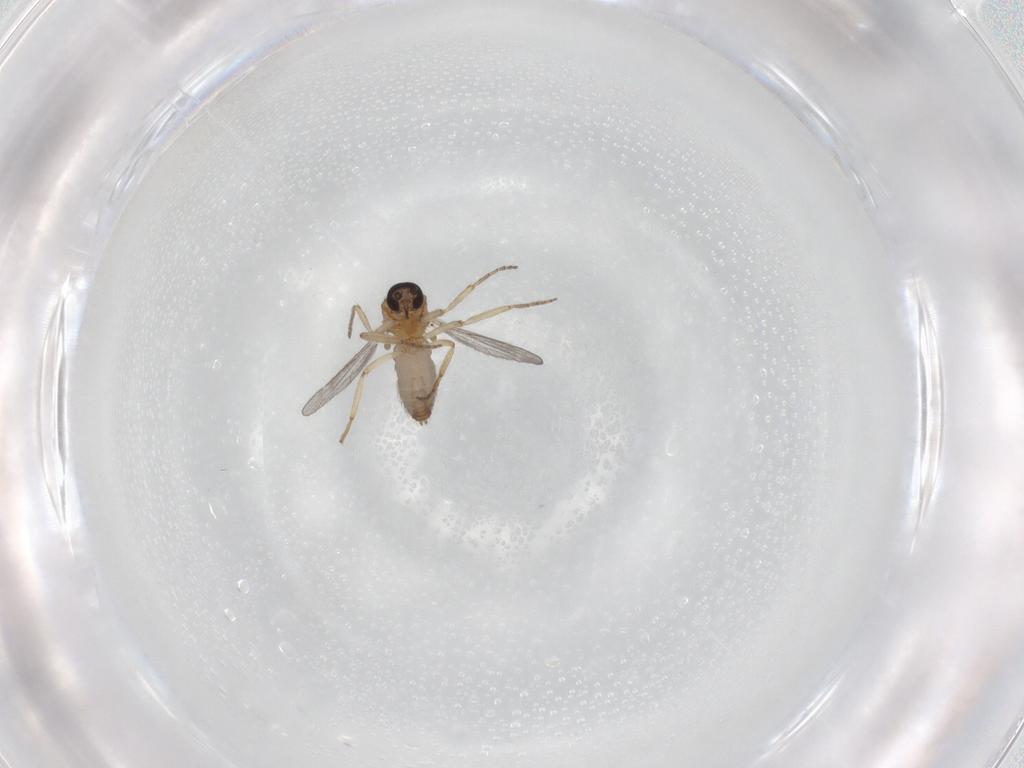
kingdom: Animalia
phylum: Arthropoda
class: Insecta
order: Diptera
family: Ceratopogonidae
